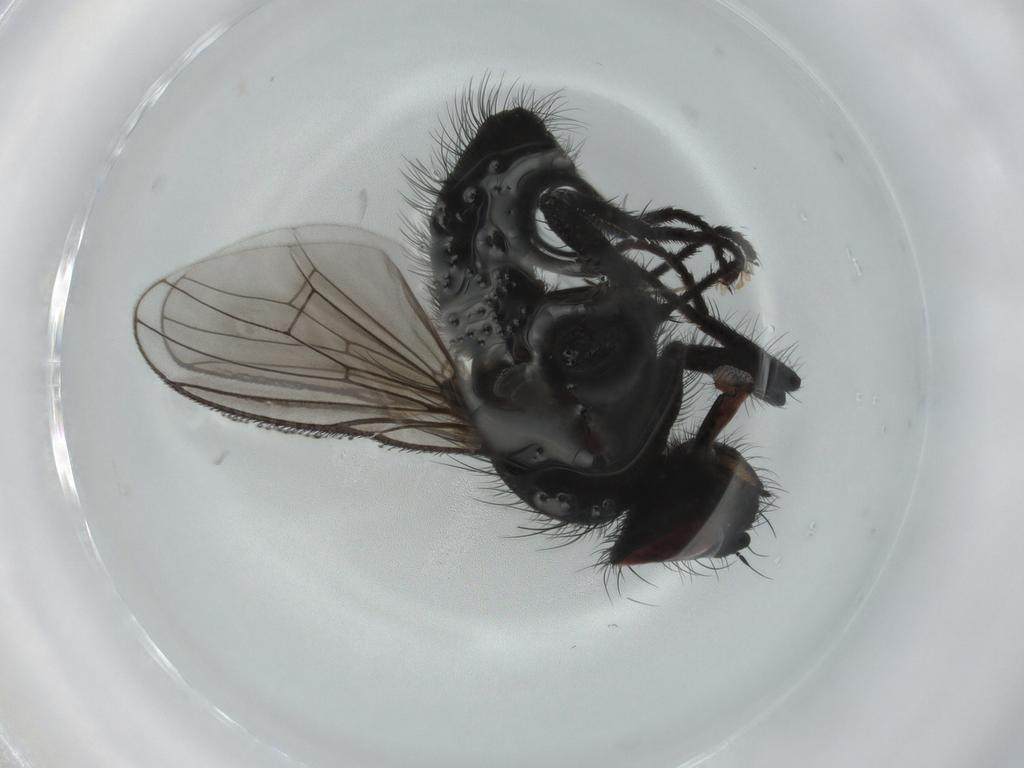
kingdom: Animalia
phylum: Arthropoda
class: Insecta
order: Diptera
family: Muscidae
